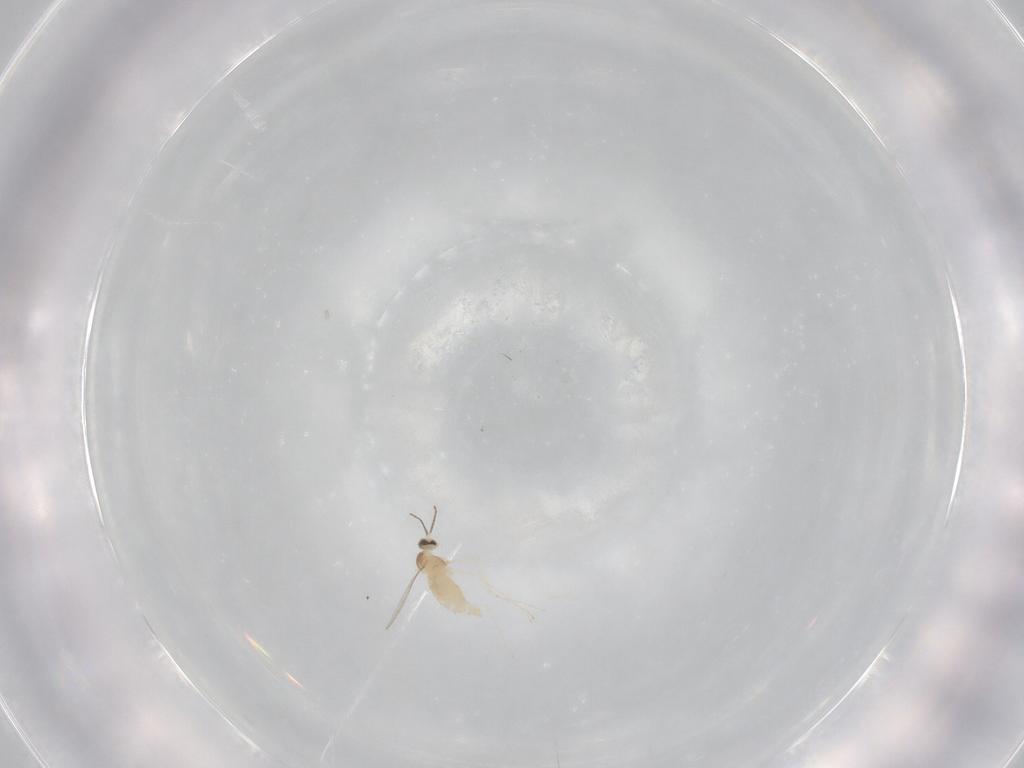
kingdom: Animalia
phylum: Arthropoda
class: Insecta
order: Diptera
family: Cecidomyiidae
